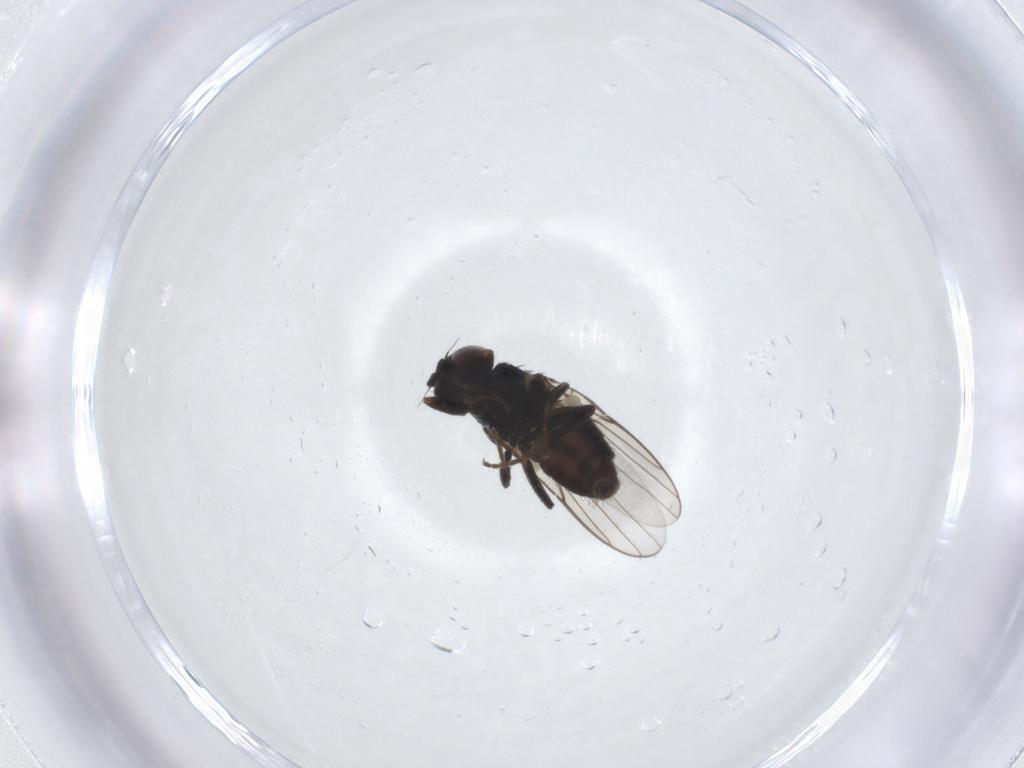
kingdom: Animalia
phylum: Arthropoda
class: Insecta
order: Diptera
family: Chloropidae
